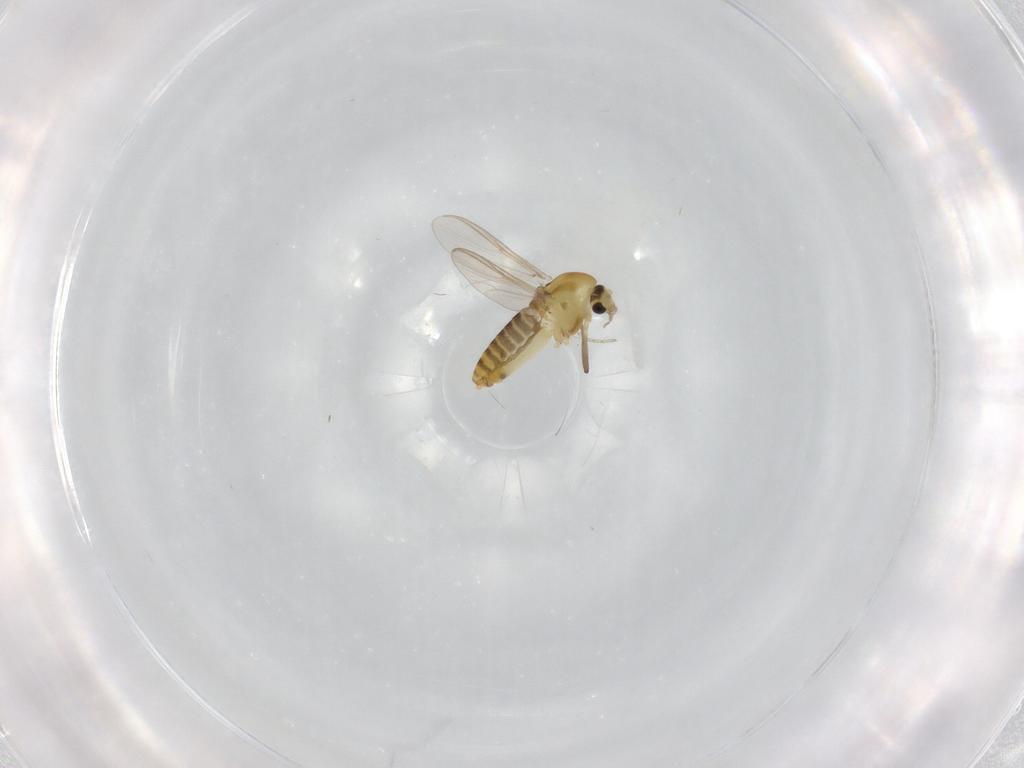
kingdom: Animalia
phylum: Arthropoda
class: Insecta
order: Diptera
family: Chironomidae
